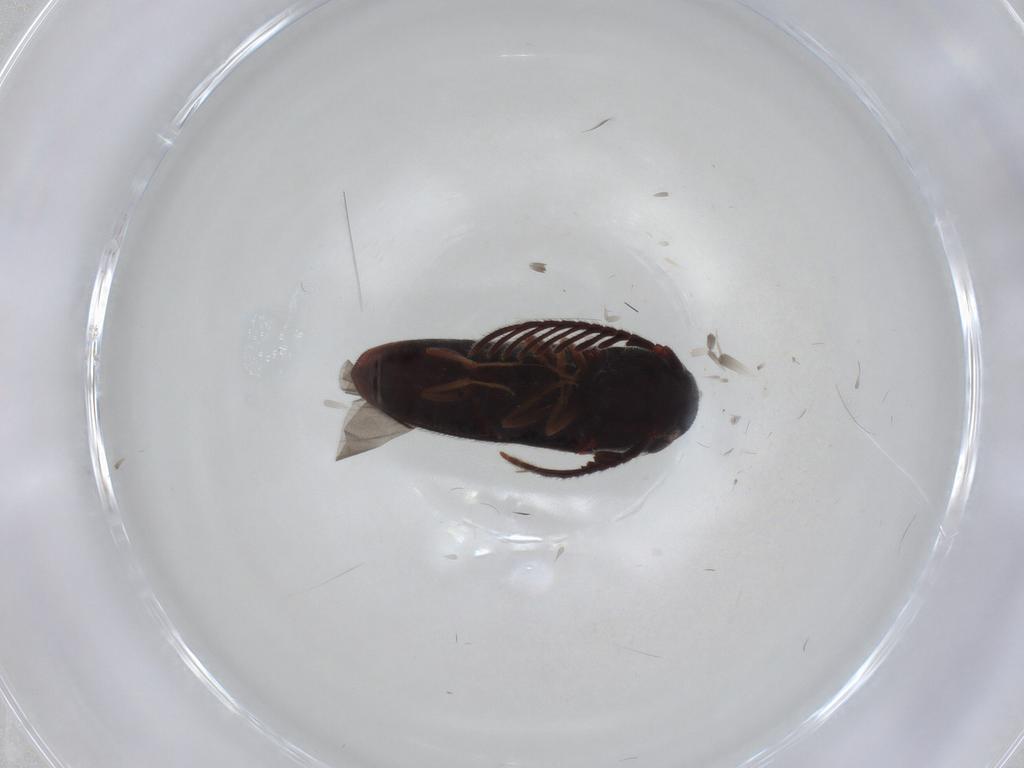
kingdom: Animalia
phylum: Arthropoda
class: Insecta
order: Coleoptera
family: Eucnemidae
